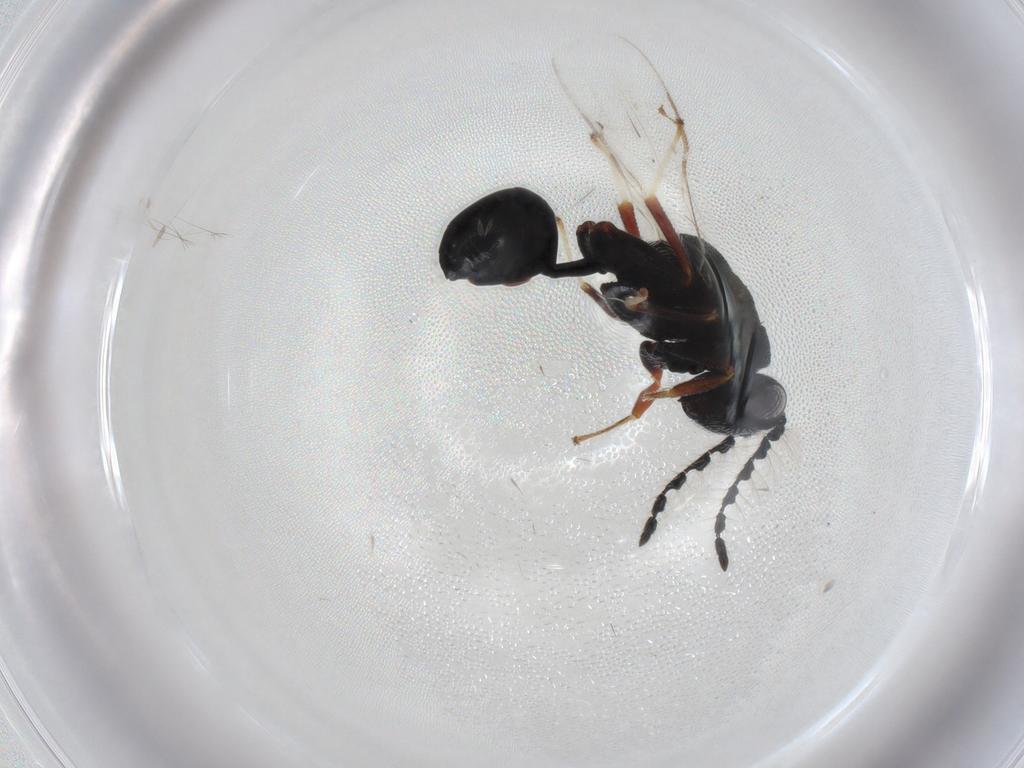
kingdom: Animalia
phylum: Arthropoda
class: Insecta
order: Hymenoptera
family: Scelionidae
